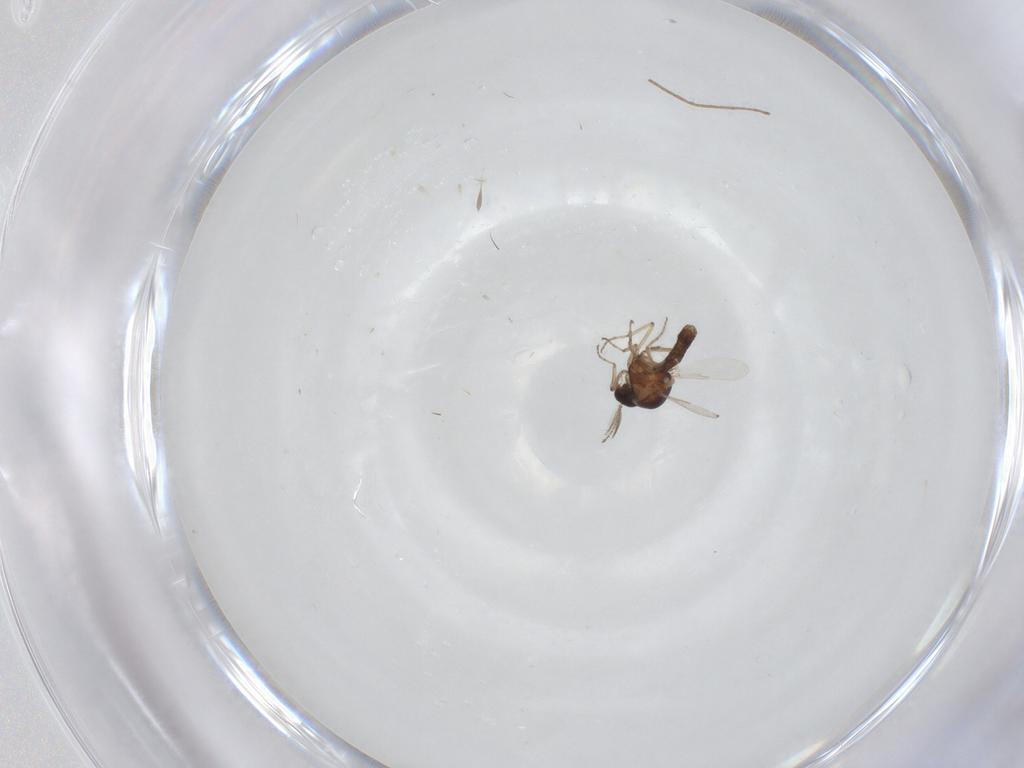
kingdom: Animalia
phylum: Arthropoda
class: Insecta
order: Diptera
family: Ceratopogonidae
